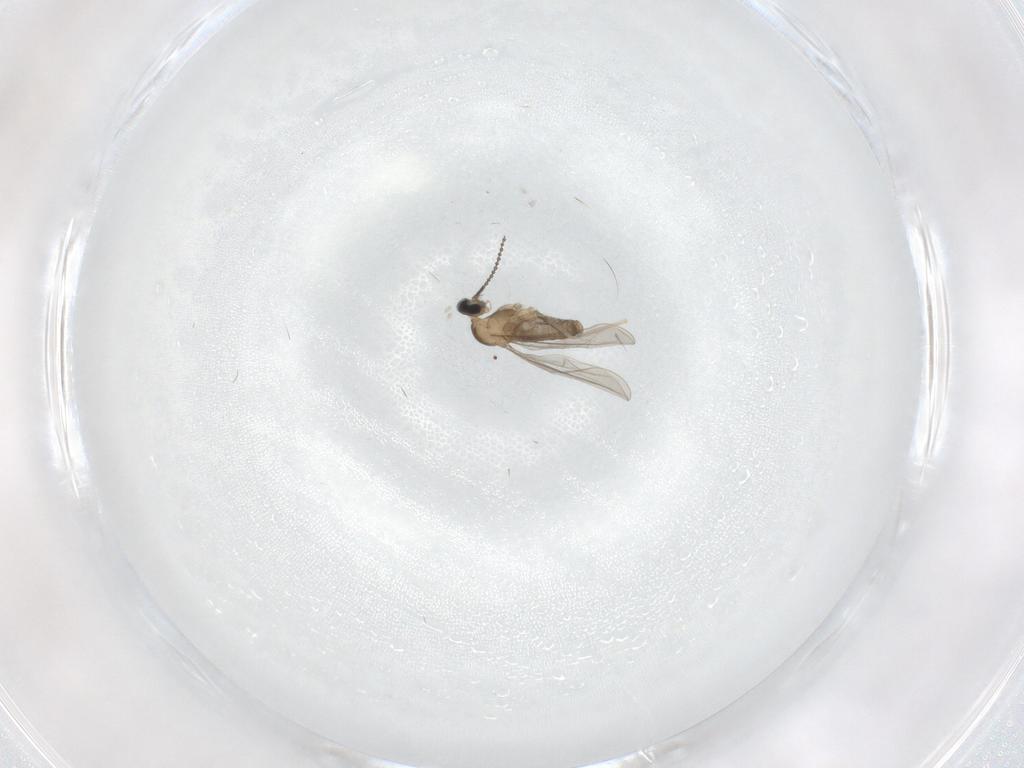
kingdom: Animalia
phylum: Arthropoda
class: Insecta
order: Diptera
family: Cecidomyiidae
